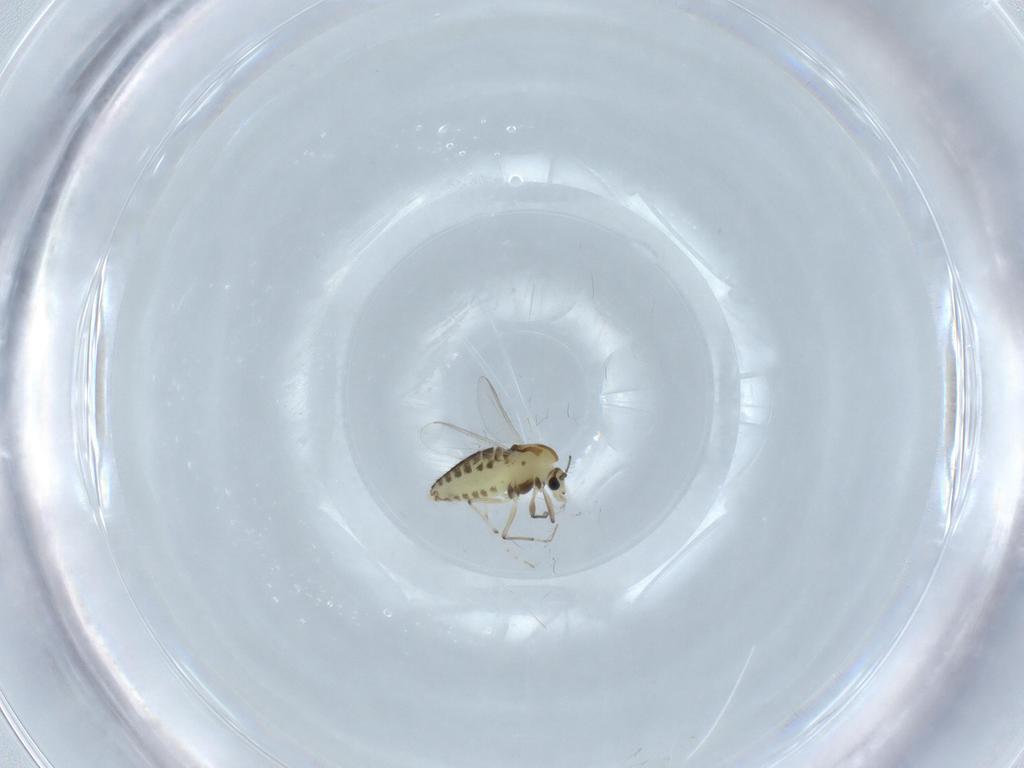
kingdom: Animalia
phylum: Arthropoda
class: Insecta
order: Diptera
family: Chironomidae
